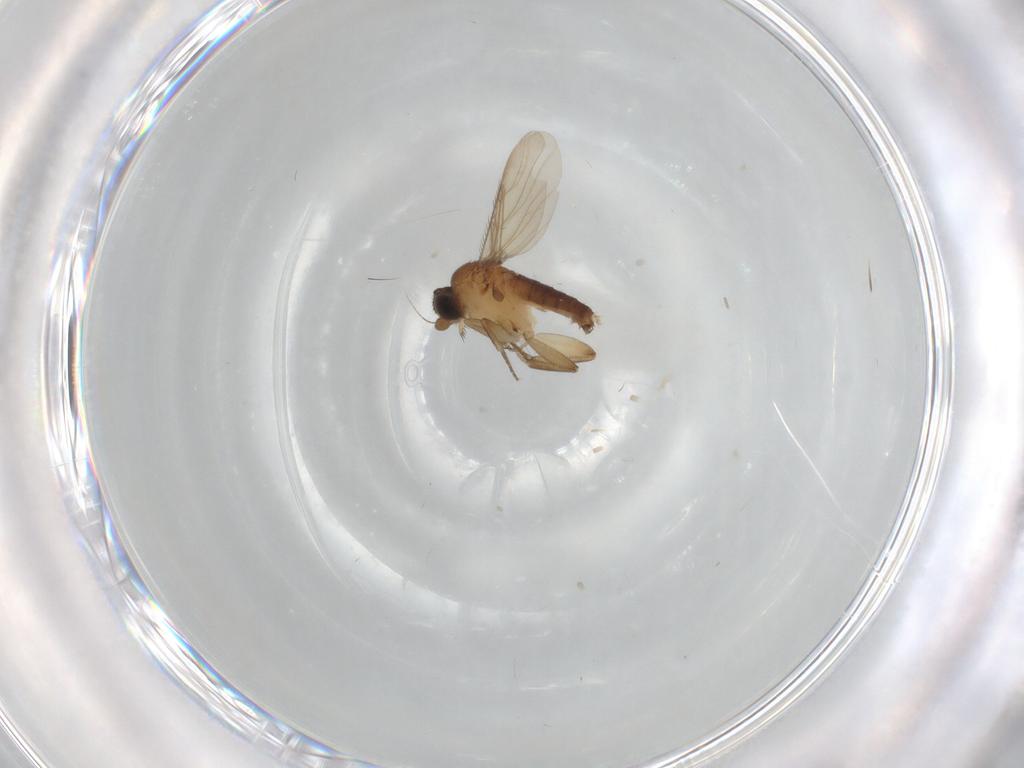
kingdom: Animalia
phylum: Arthropoda
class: Insecta
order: Diptera
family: Phoridae
